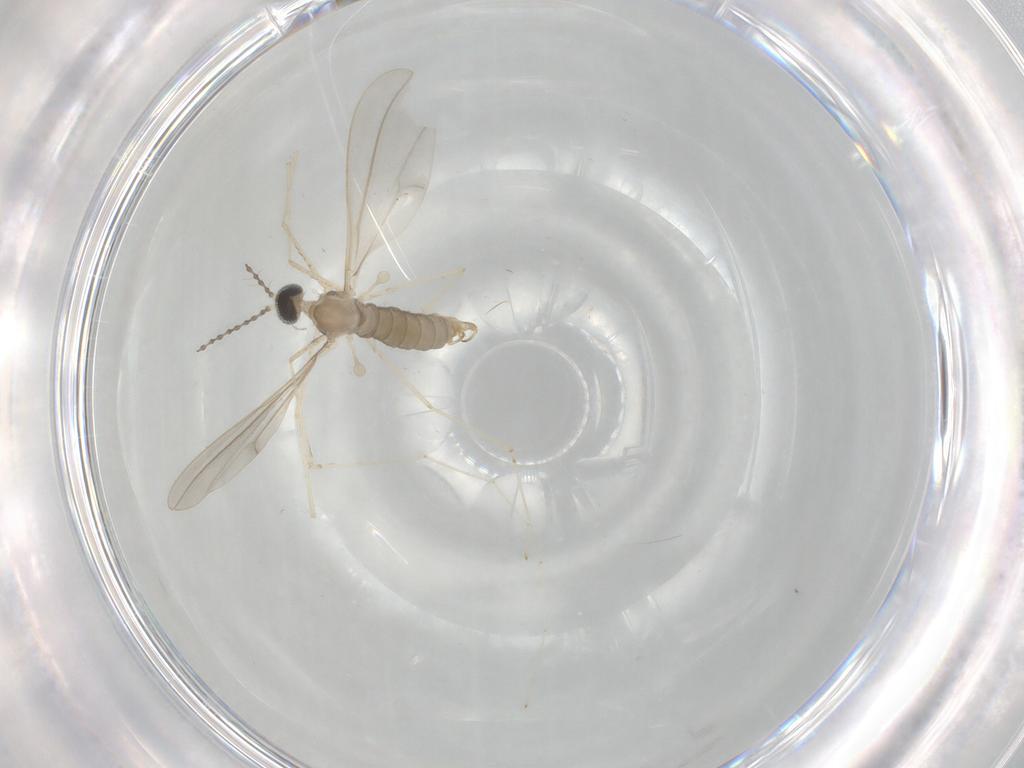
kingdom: Animalia
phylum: Arthropoda
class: Insecta
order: Diptera
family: Cecidomyiidae
